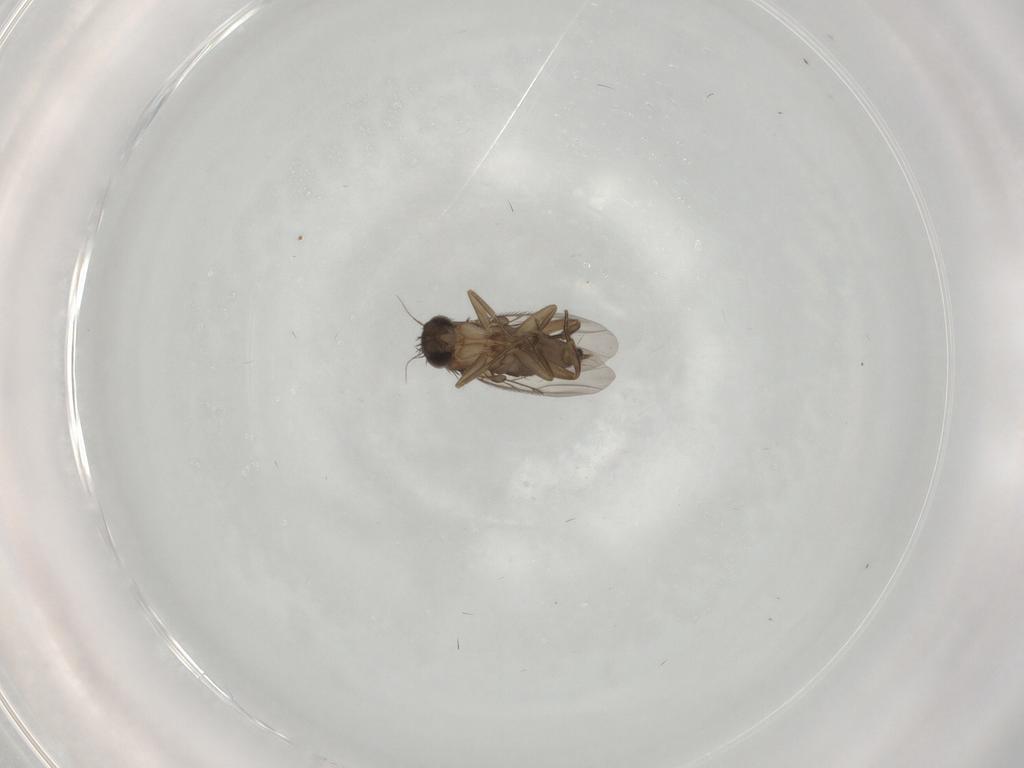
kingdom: Animalia
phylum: Arthropoda
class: Insecta
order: Diptera
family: Phoridae
